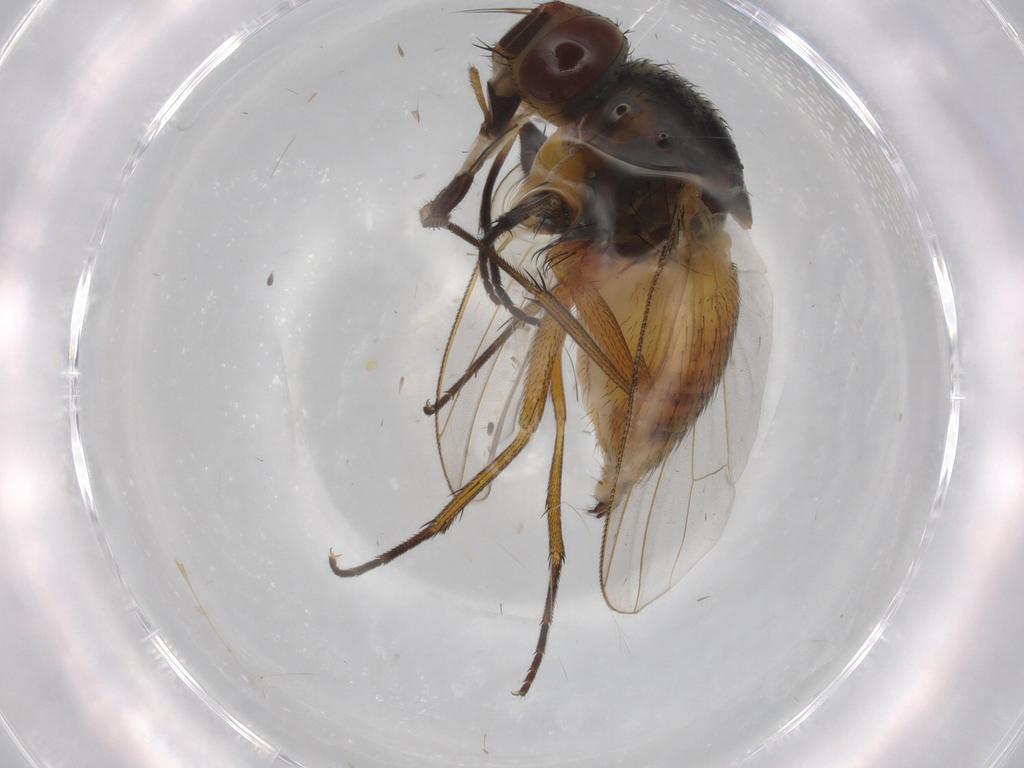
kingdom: Animalia
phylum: Arthropoda
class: Insecta
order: Diptera
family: Muscidae
